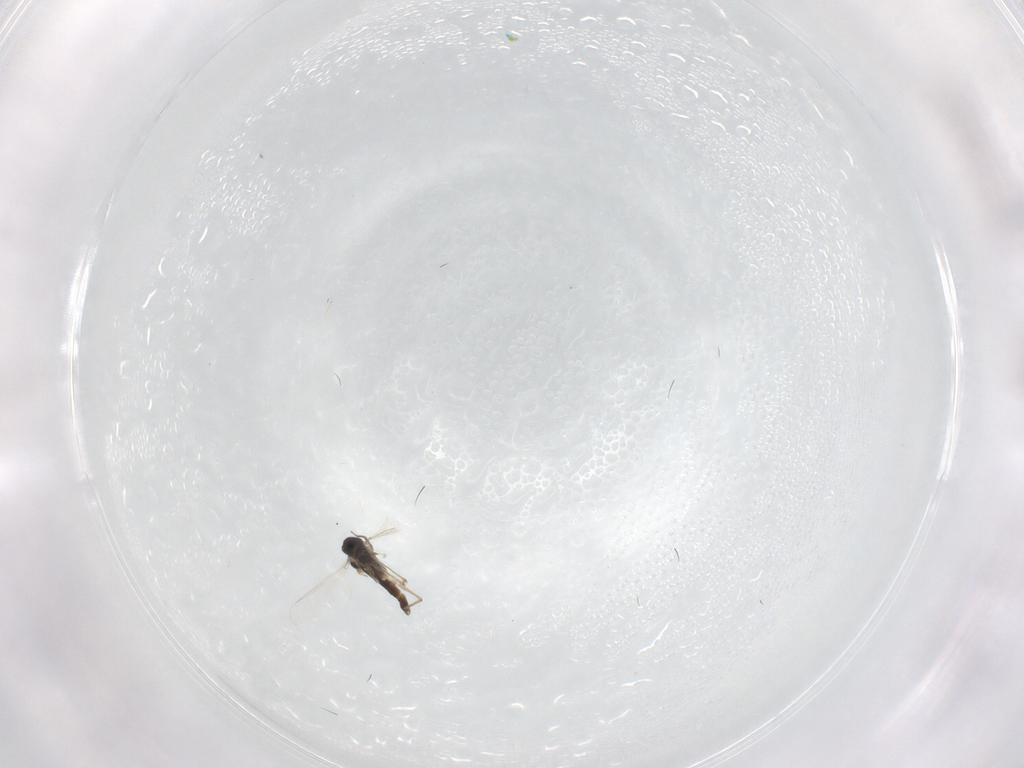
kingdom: Animalia
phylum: Arthropoda
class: Insecta
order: Diptera
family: Chironomidae
